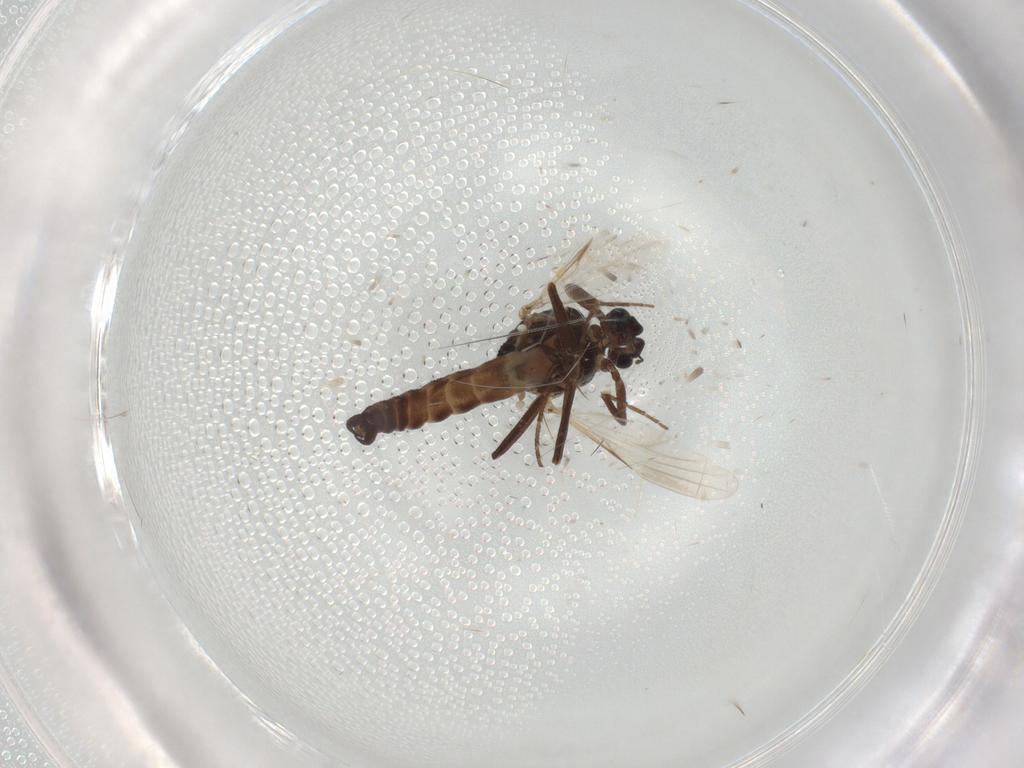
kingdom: Animalia
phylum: Arthropoda
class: Insecta
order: Diptera
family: Ceratopogonidae
